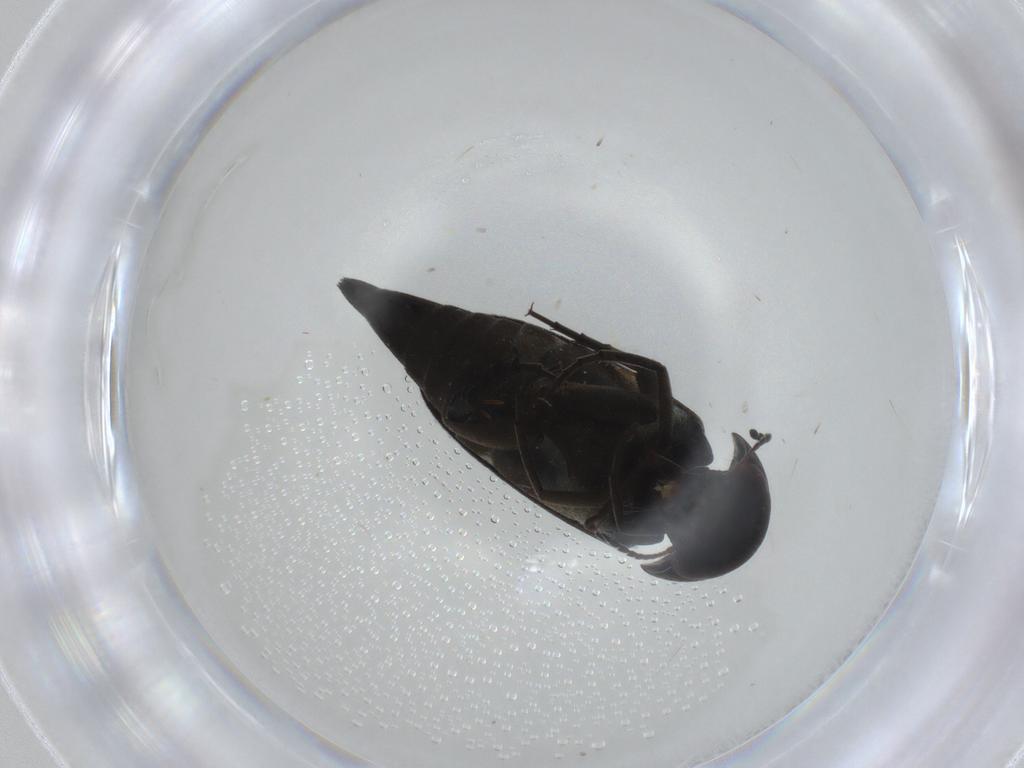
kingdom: Animalia
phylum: Arthropoda
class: Insecta
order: Coleoptera
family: Mordellidae
